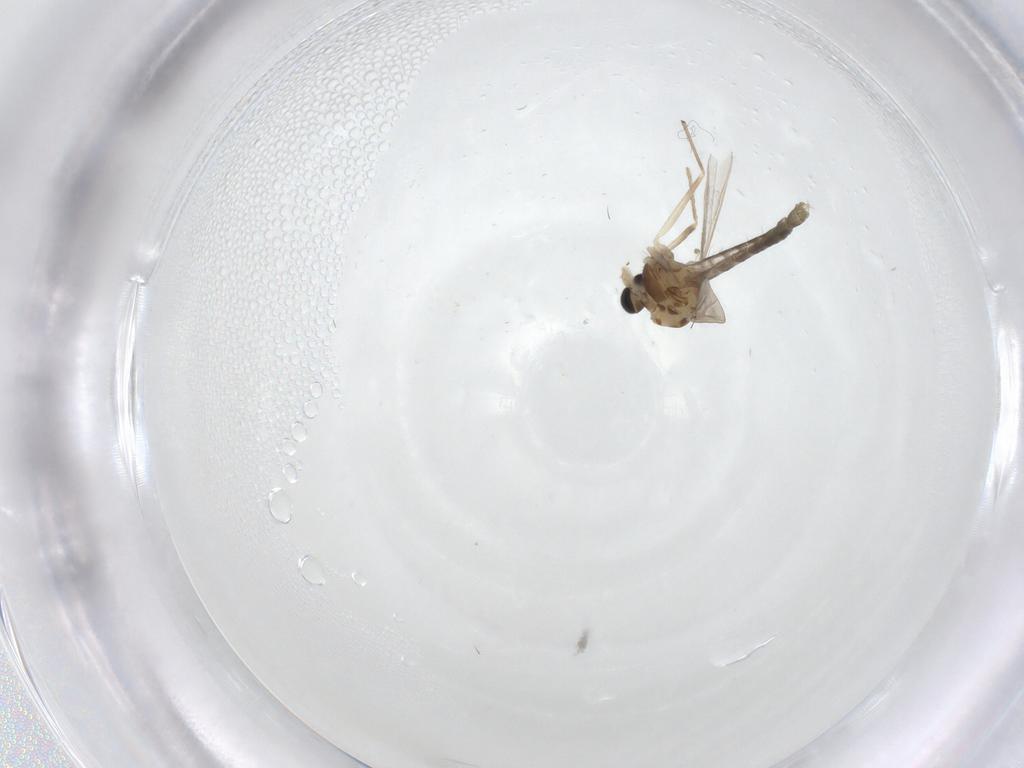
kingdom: Animalia
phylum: Arthropoda
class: Insecta
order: Diptera
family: Chironomidae
